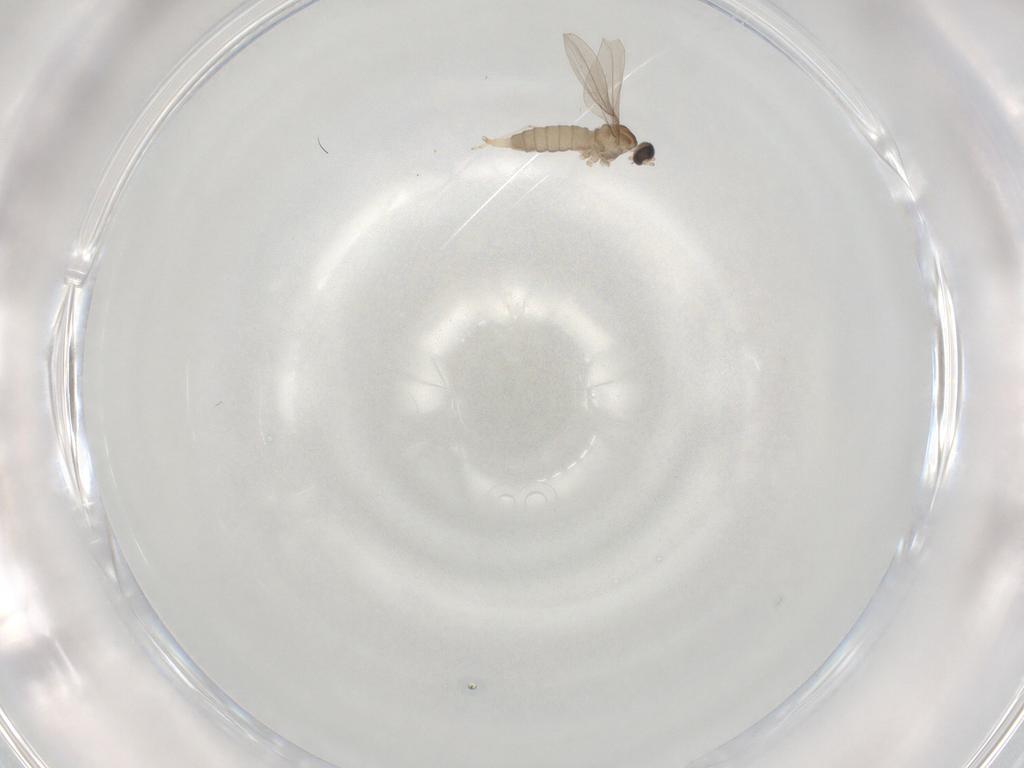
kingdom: Animalia
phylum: Arthropoda
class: Insecta
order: Diptera
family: Cecidomyiidae
